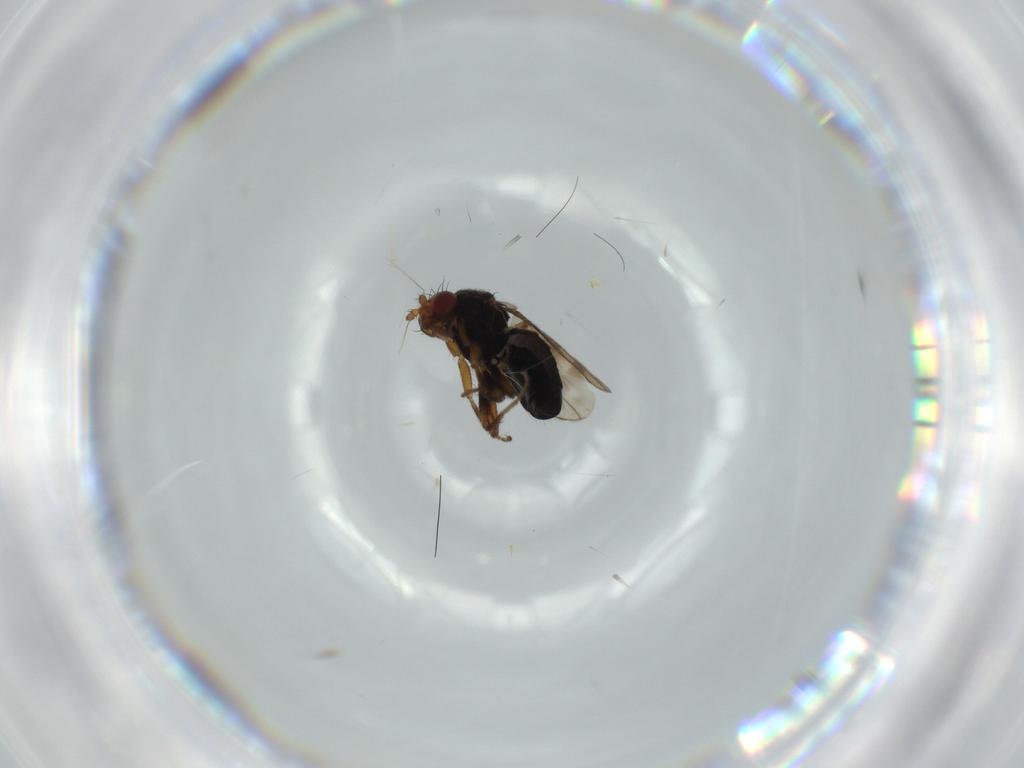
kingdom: Animalia
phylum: Arthropoda
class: Insecta
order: Diptera
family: Sphaeroceridae
